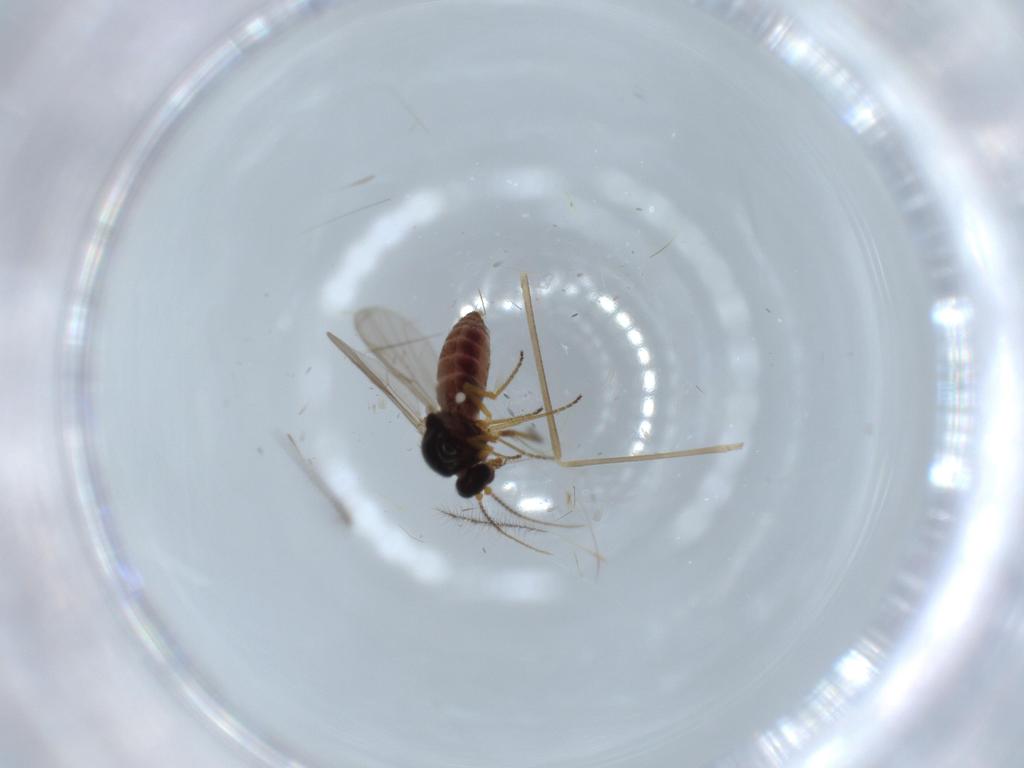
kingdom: Animalia
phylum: Arthropoda
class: Insecta
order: Diptera
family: Ceratopogonidae
